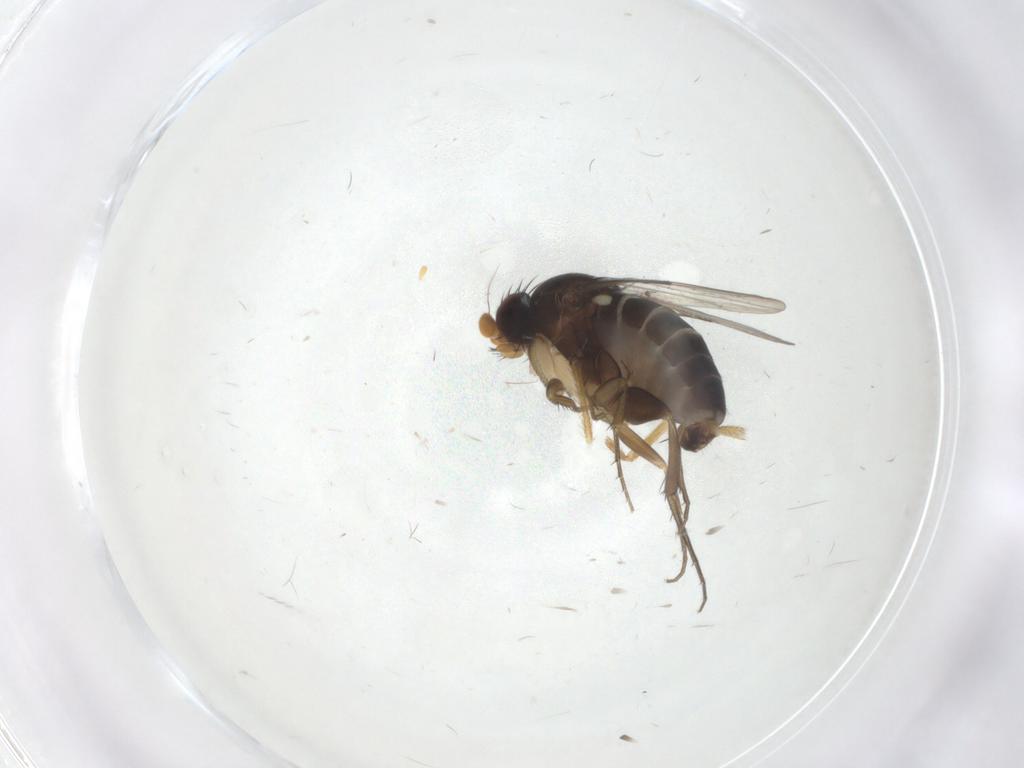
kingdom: Animalia
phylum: Arthropoda
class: Insecta
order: Diptera
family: Phoridae
